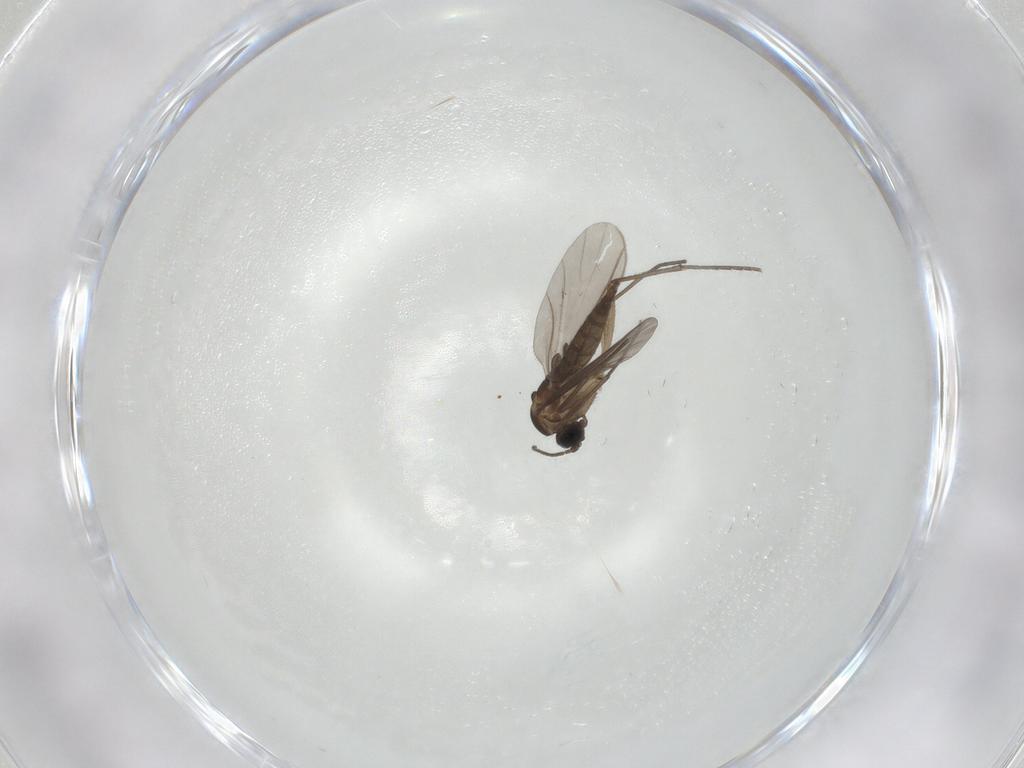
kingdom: Animalia
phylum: Arthropoda
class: Insecta
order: Diptera
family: Sciaridae
